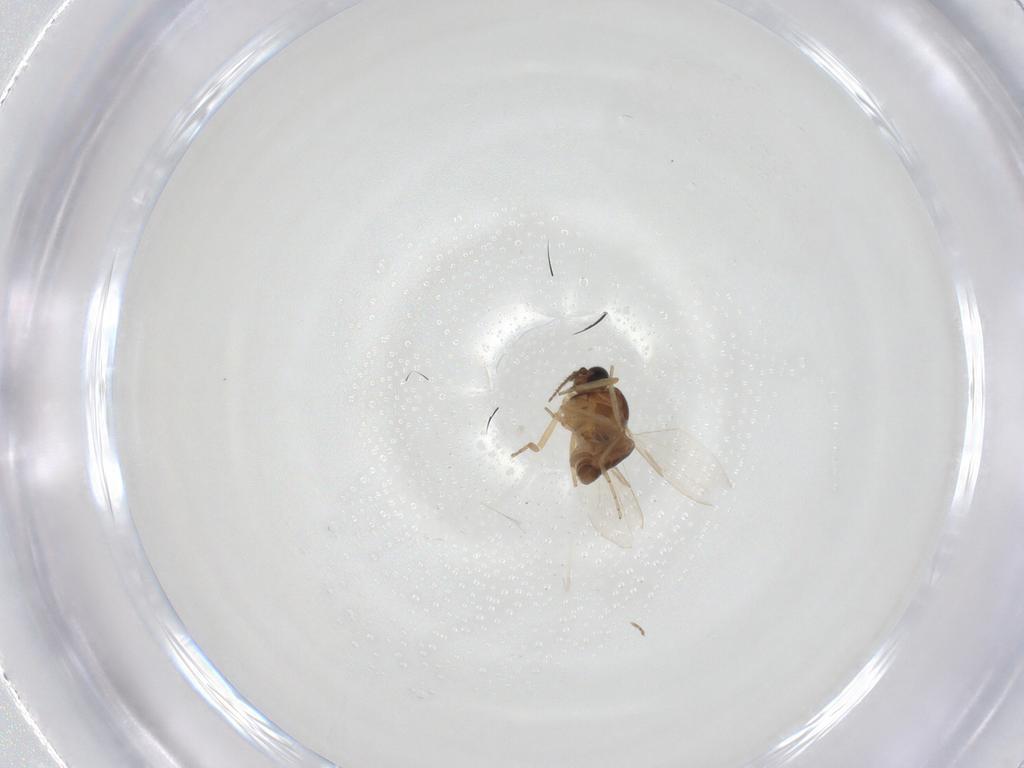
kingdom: Animalia
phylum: Arthropoda
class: Insecta
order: Diptera
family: Ceratopogonidae
